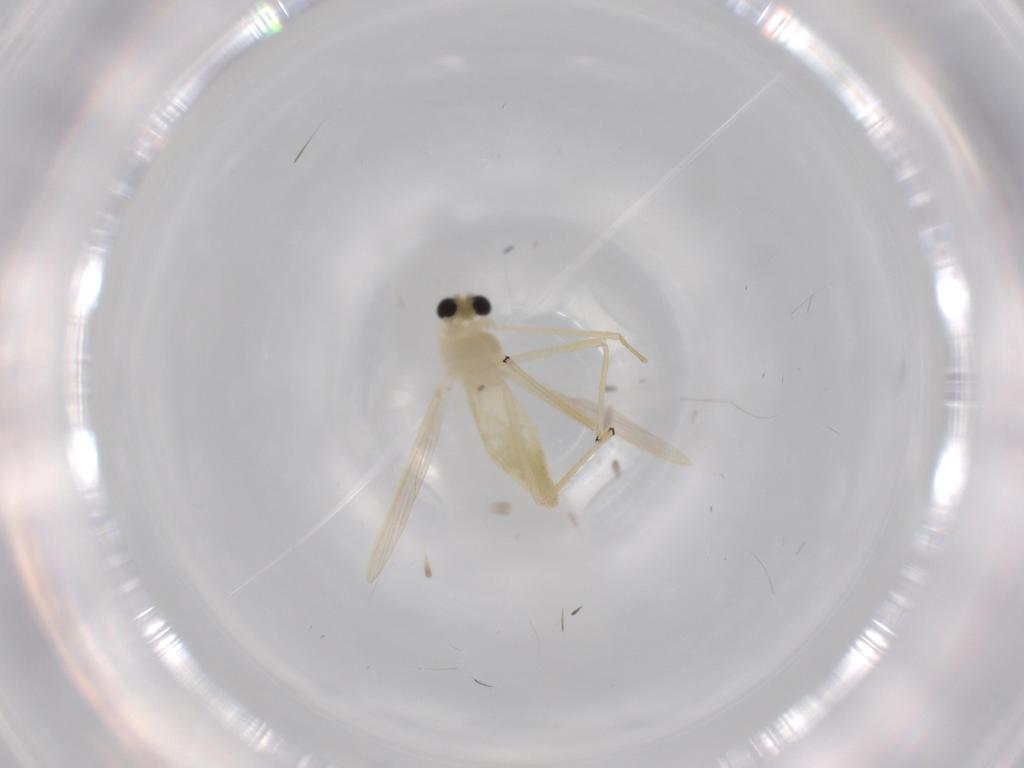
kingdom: Animalia
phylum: Arthropoda
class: Insecta
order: Diptera
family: Chironomidae
